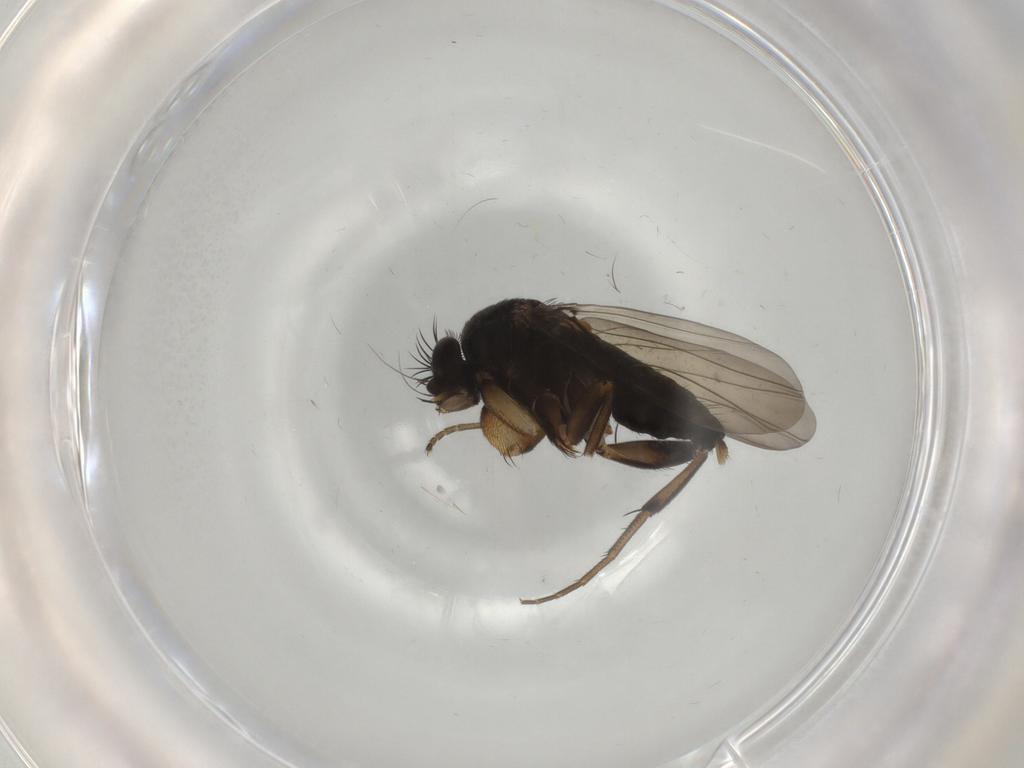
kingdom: Animalia
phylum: Arthropoda
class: Insecta
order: Diptera
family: Phoridae
